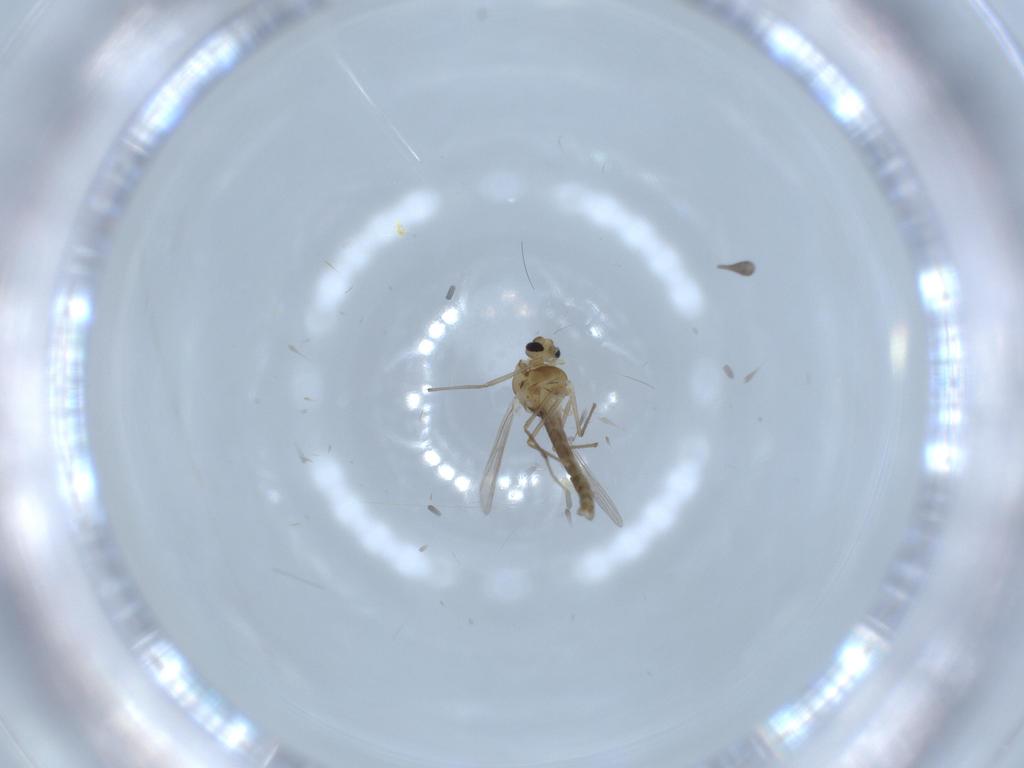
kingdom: Animalia
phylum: Arthropoda
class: Insecta
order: Diptera
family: Chironomidae
